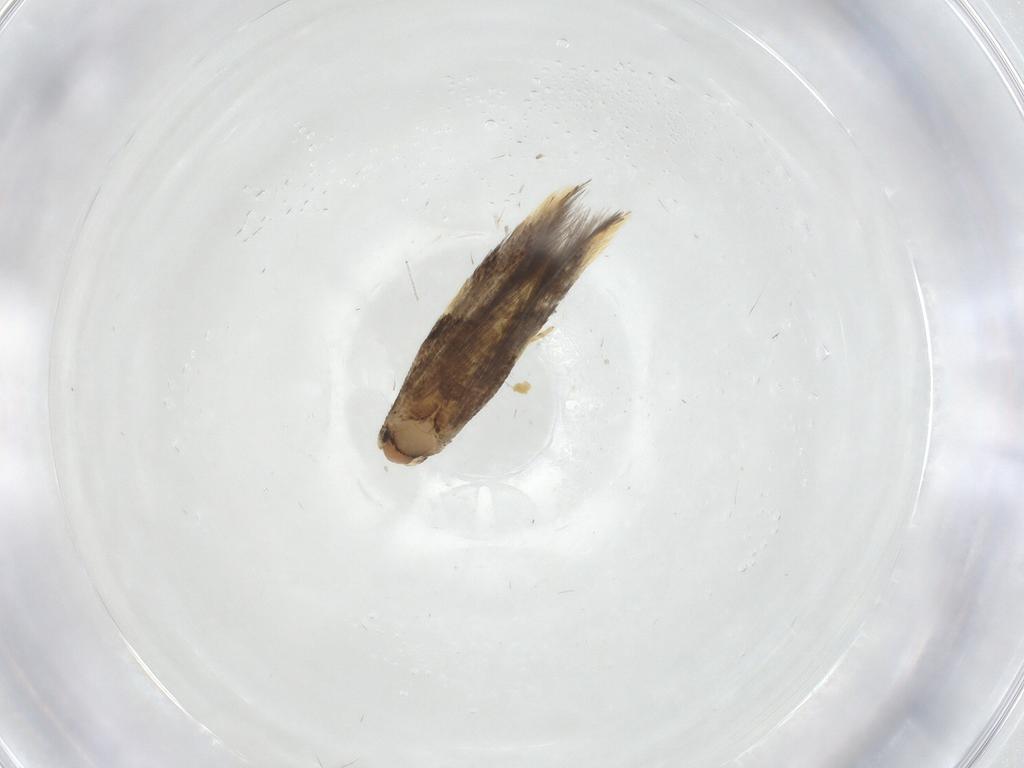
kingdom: Animalia
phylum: Arthropoda
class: Insecta
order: Lepidoptera
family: Tineidae
